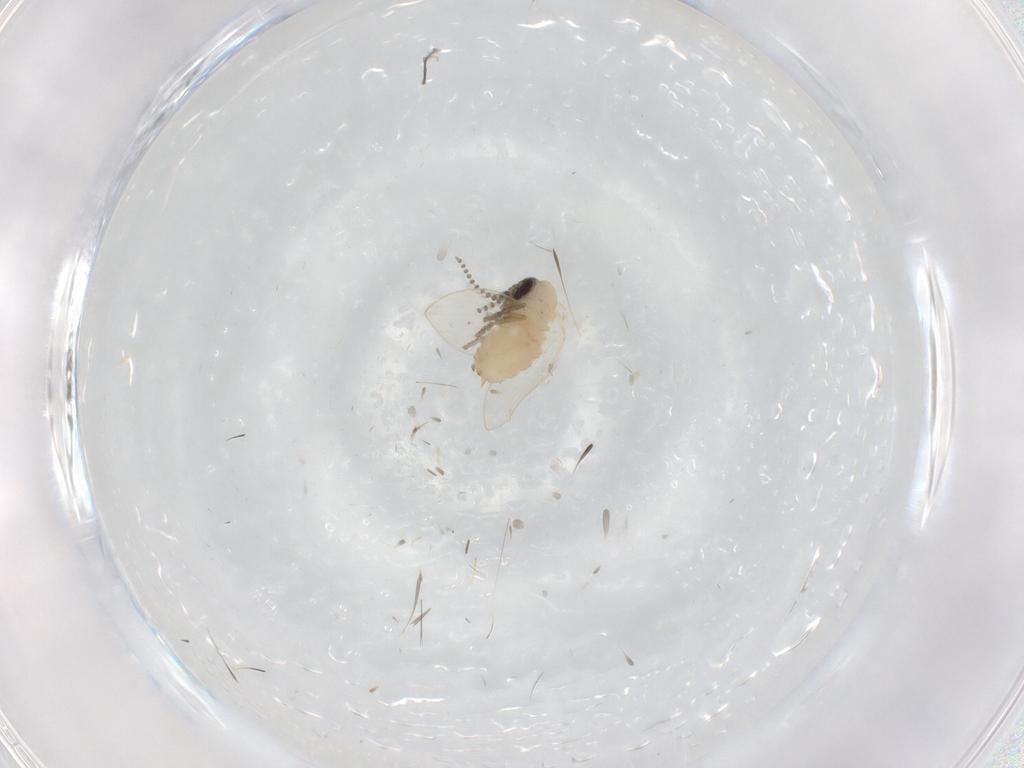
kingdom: Animalia
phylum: Arthropoda
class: Insecta
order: Diptera
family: Psychodidae
